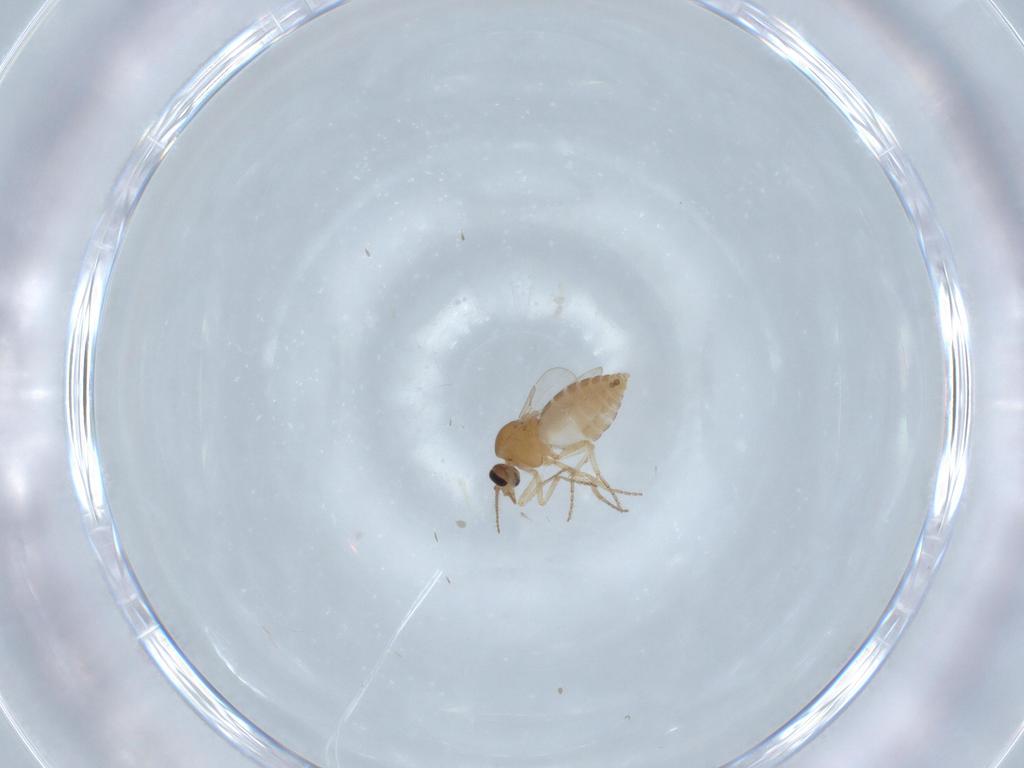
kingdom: Animalia
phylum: Arthropoda
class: Insecta
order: Diptera
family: Ceratopogonidae
